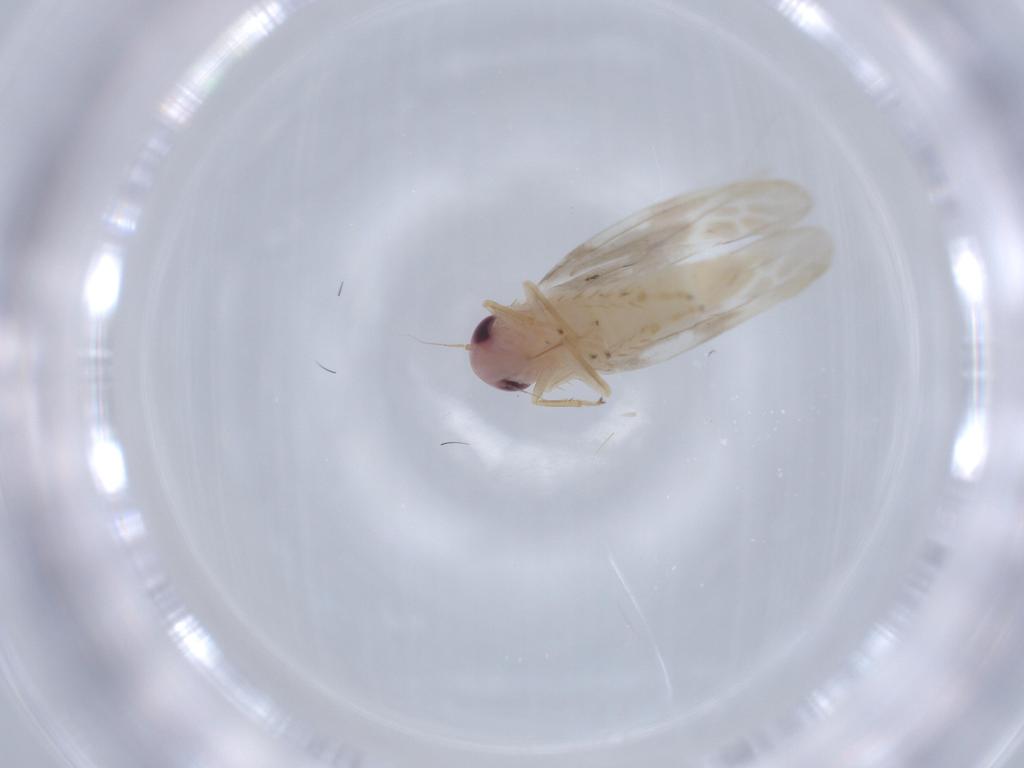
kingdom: Animalia
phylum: Arthropoda
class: Insecta
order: Hemiptera
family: Cicadellidae
